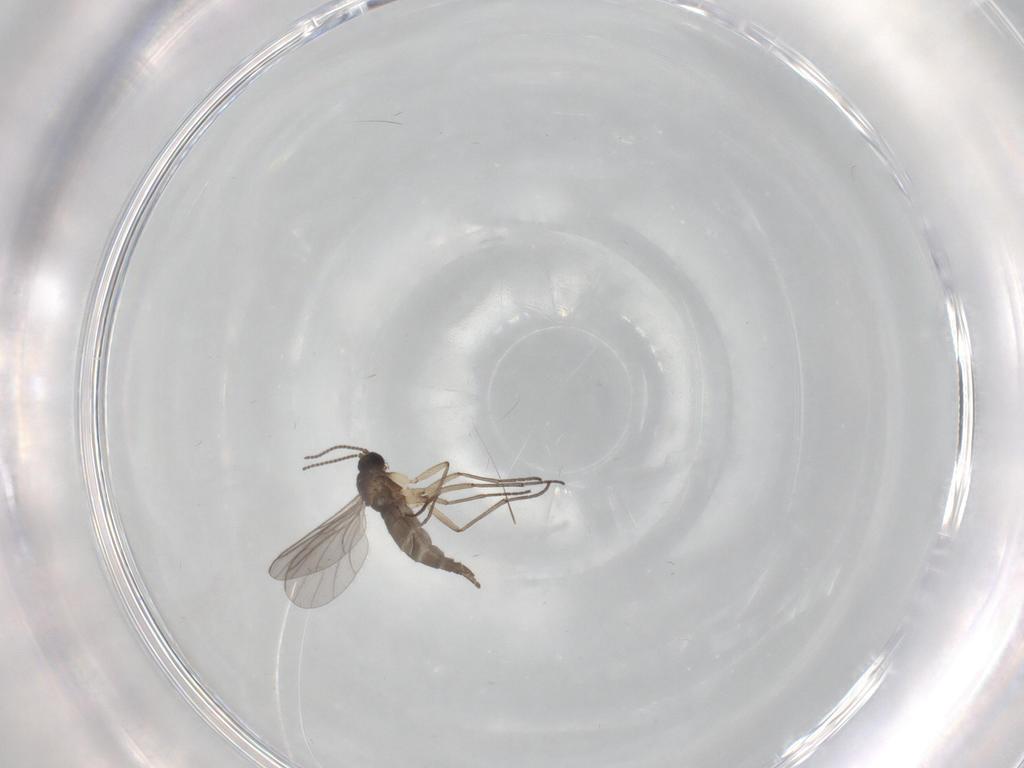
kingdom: Animalia
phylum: Arthropoda
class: Insecta
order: Diptera
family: Sciaridae
